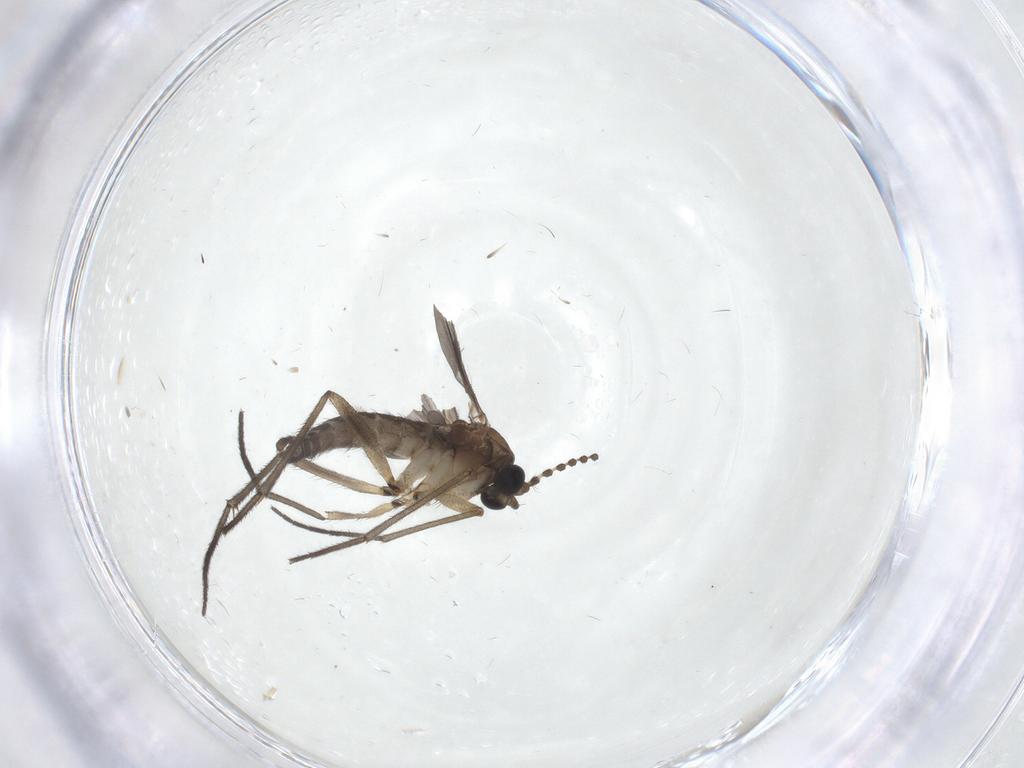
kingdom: Animalia
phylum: Arthropoda
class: Insecta
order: Diptera
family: Sciaridae
